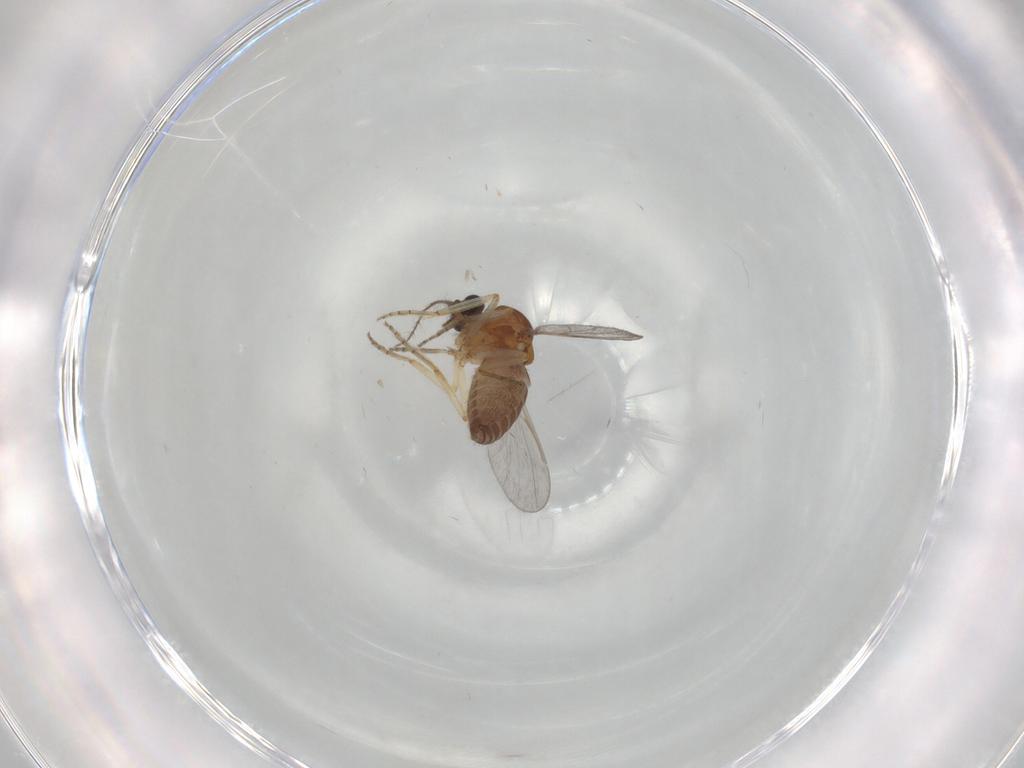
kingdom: Animalia
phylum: Arthropoda
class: Insecta
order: Diptera
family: Ceratopogonidae
